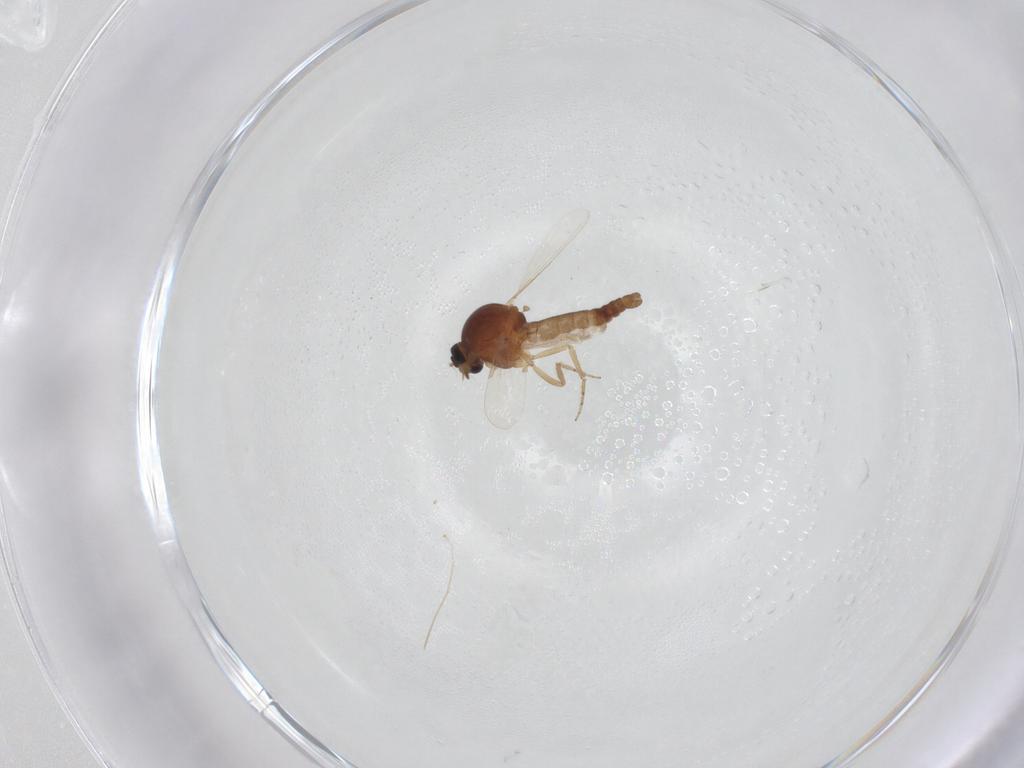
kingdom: Animalia
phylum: Arthropoda
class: Insecta
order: Diptera
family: Ceratopogonidae
